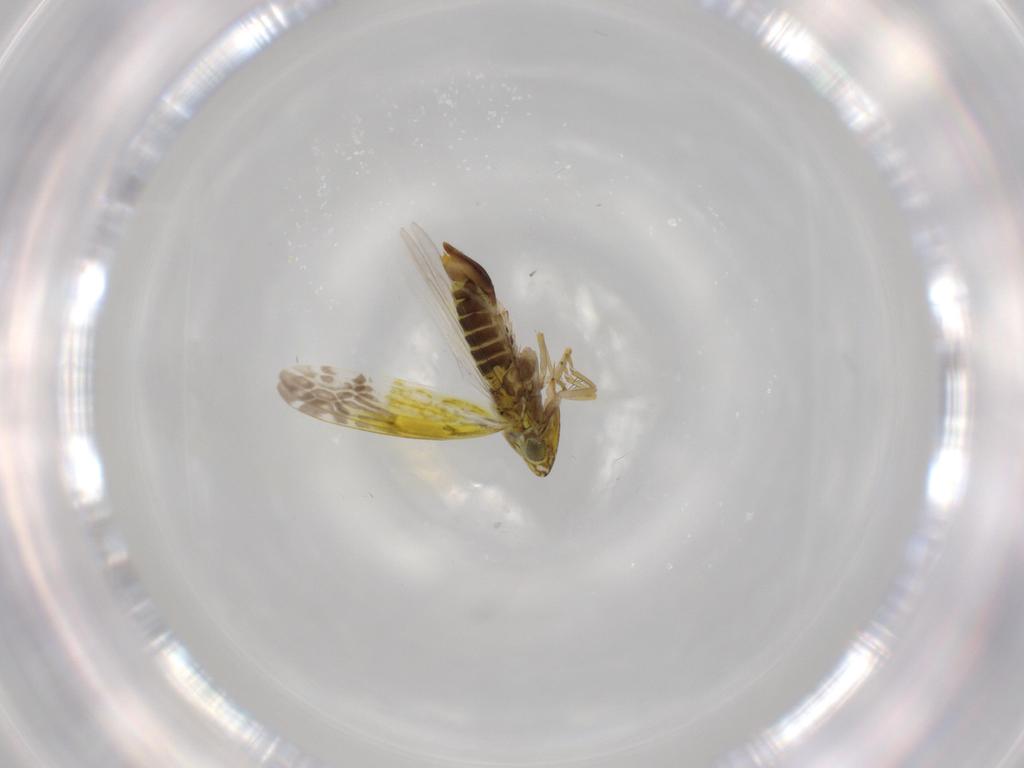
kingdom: Animalia
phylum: Arthropoda
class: Insecta
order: Hemiptera
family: Cicadellidae
